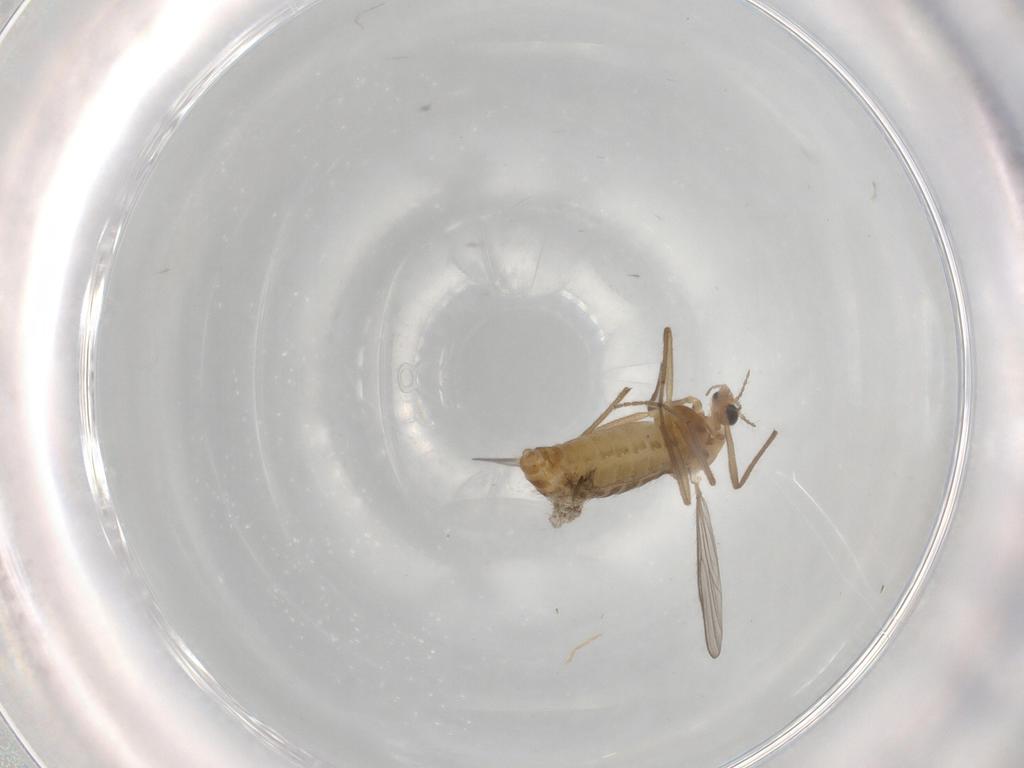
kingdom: Animalia
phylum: Arthropoda
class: Insecta
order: Diptera
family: Chironomidae
